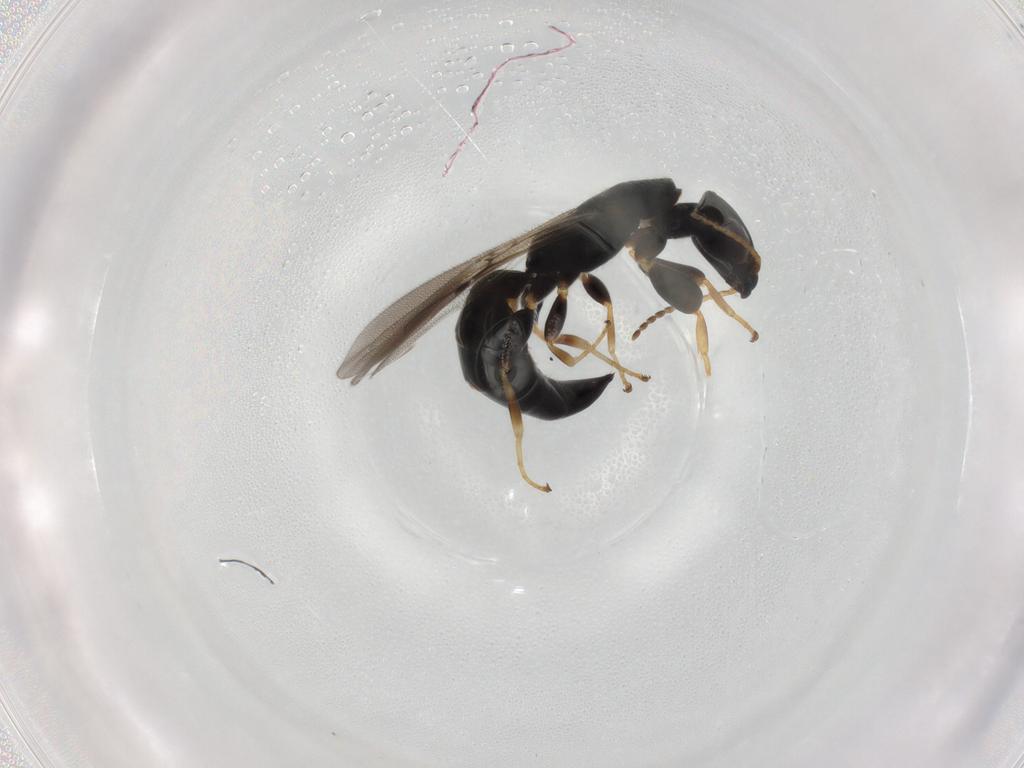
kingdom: Animalia
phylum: Arthropoda
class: Insecta
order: Hymenoptera
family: Bethylidae
